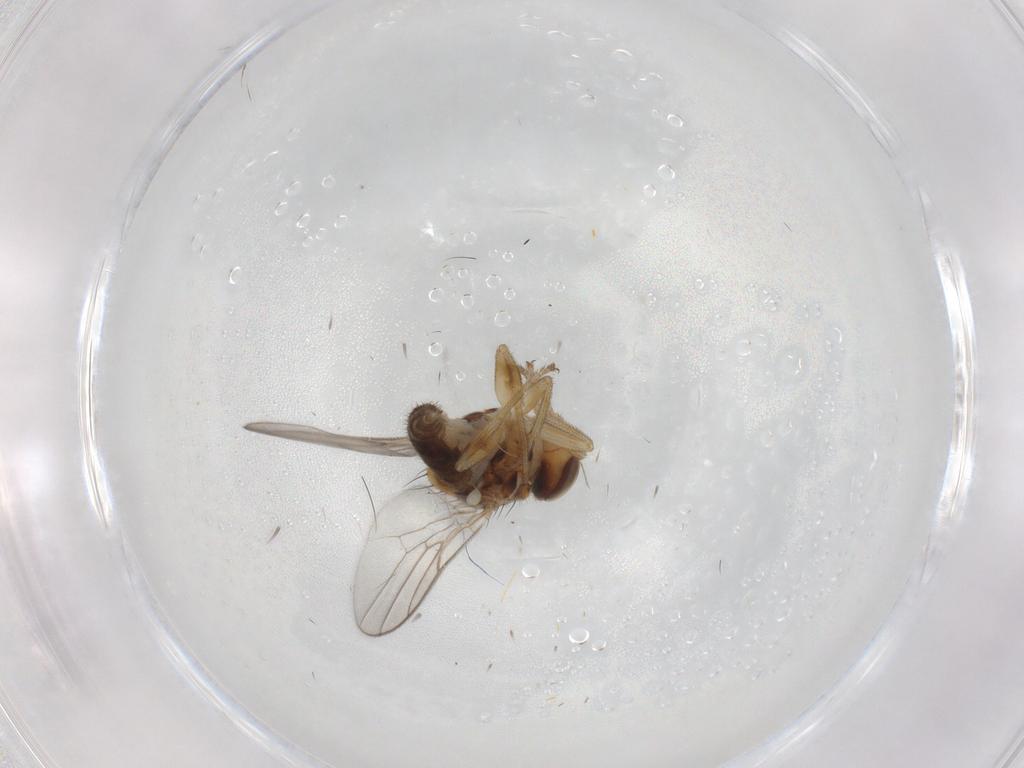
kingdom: Animalia
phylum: Arthropoda
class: Insecta
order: Diptera
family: Chloropidae
